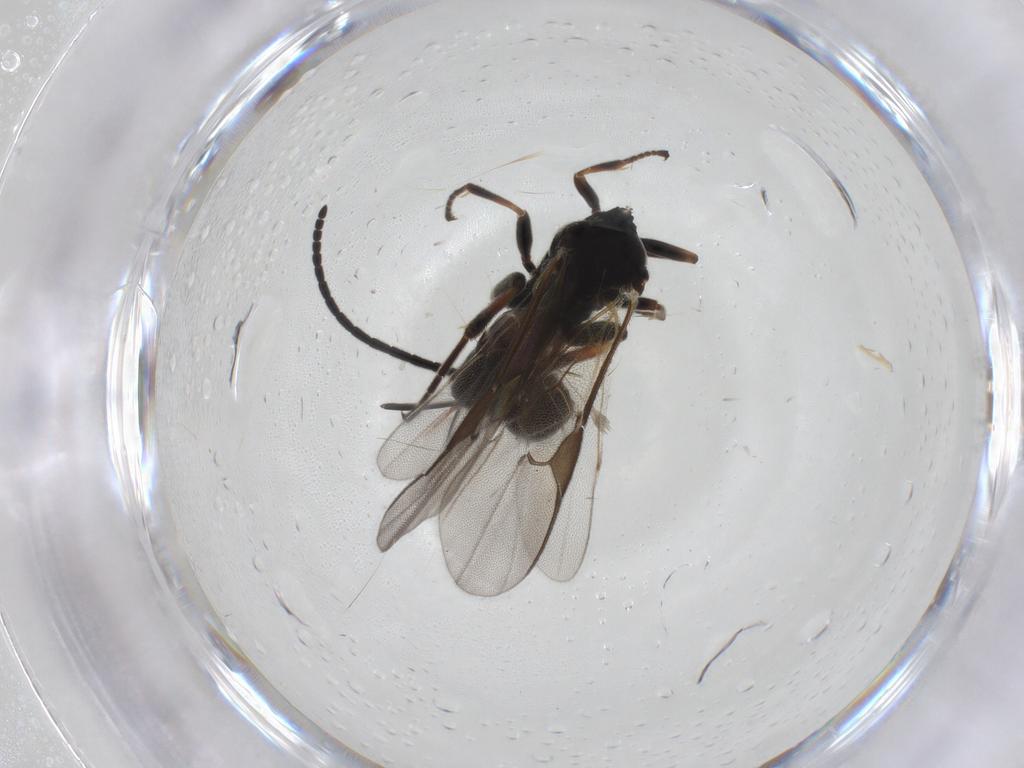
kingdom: Animalia
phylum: Arthropoda
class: Insecta
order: Hymenoptera
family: Braconidae
